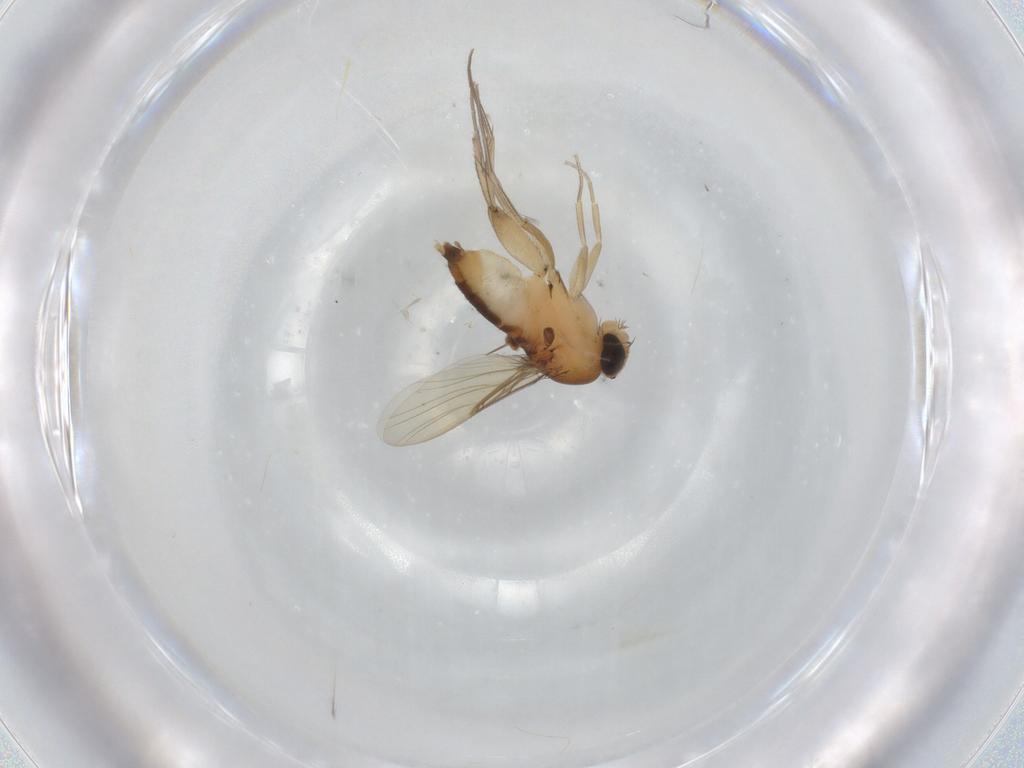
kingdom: Animalia
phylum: Arthropoda
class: Insecta
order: Diptera
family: Phoridae
